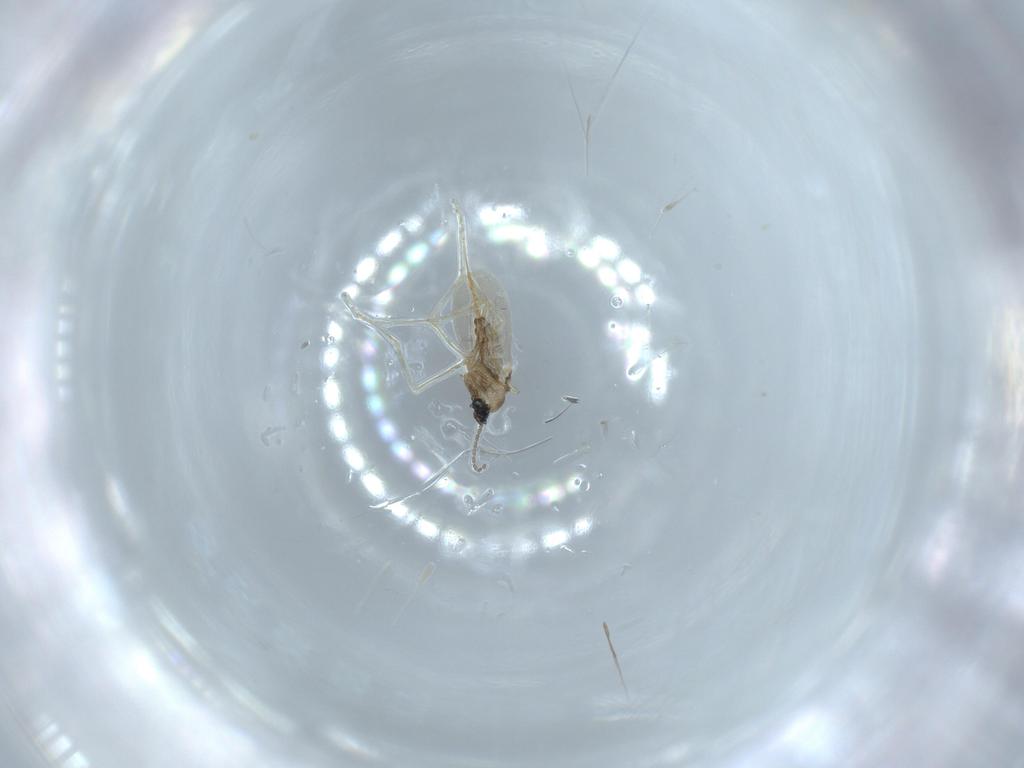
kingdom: Animalia
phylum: Arthropoda
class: Insecta
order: Diptera
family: Cecidomyiidae
